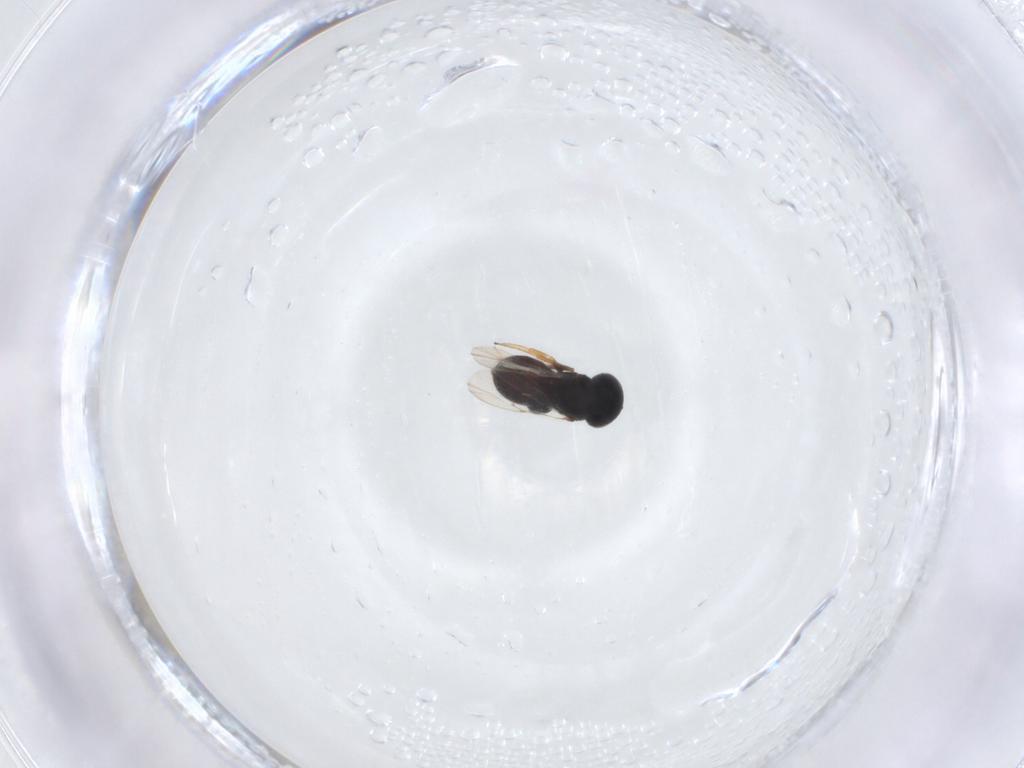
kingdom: Animalia
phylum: Arthropoda
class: Insecta
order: Hymenoptera
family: Scelionidae
